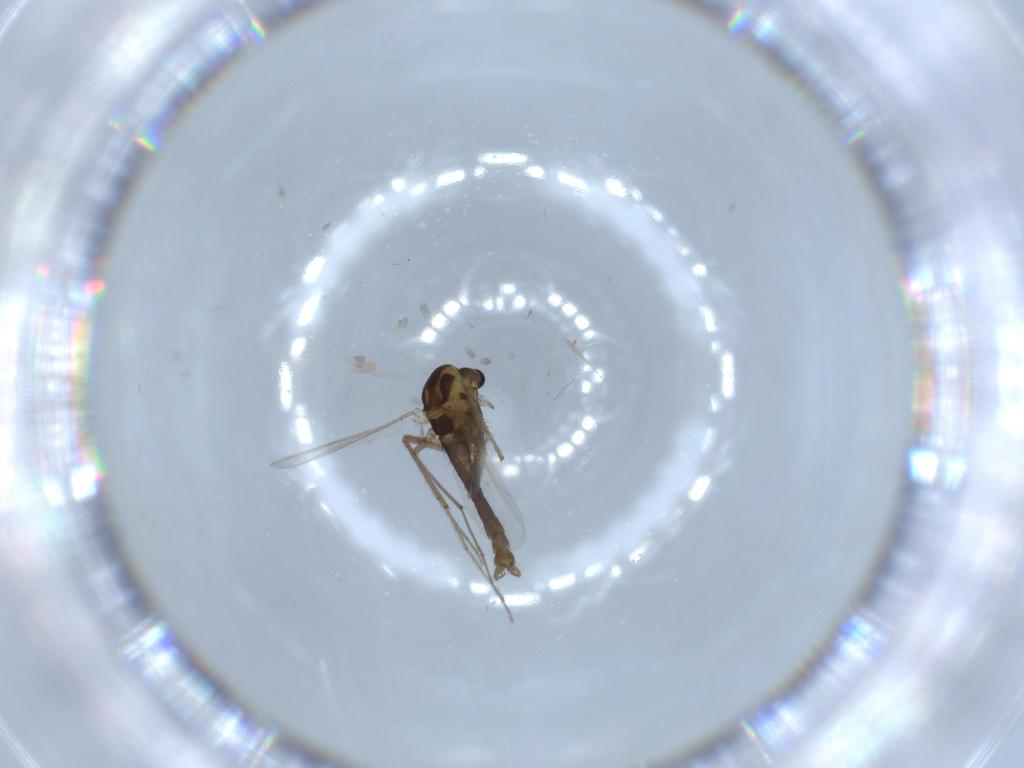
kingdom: Animalia
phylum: Arthropoda
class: Insecta
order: Diptera
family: Chironomidae
